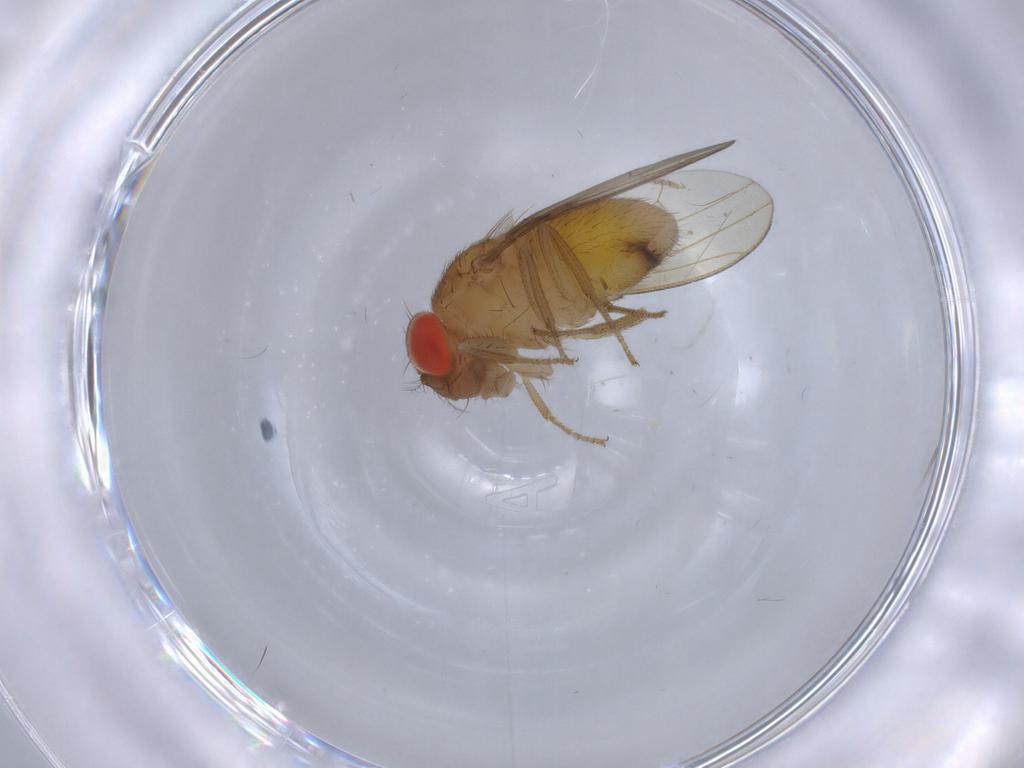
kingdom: Animalia
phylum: Arthropoda
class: Insecta
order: Diptera
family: Drosophilidae
